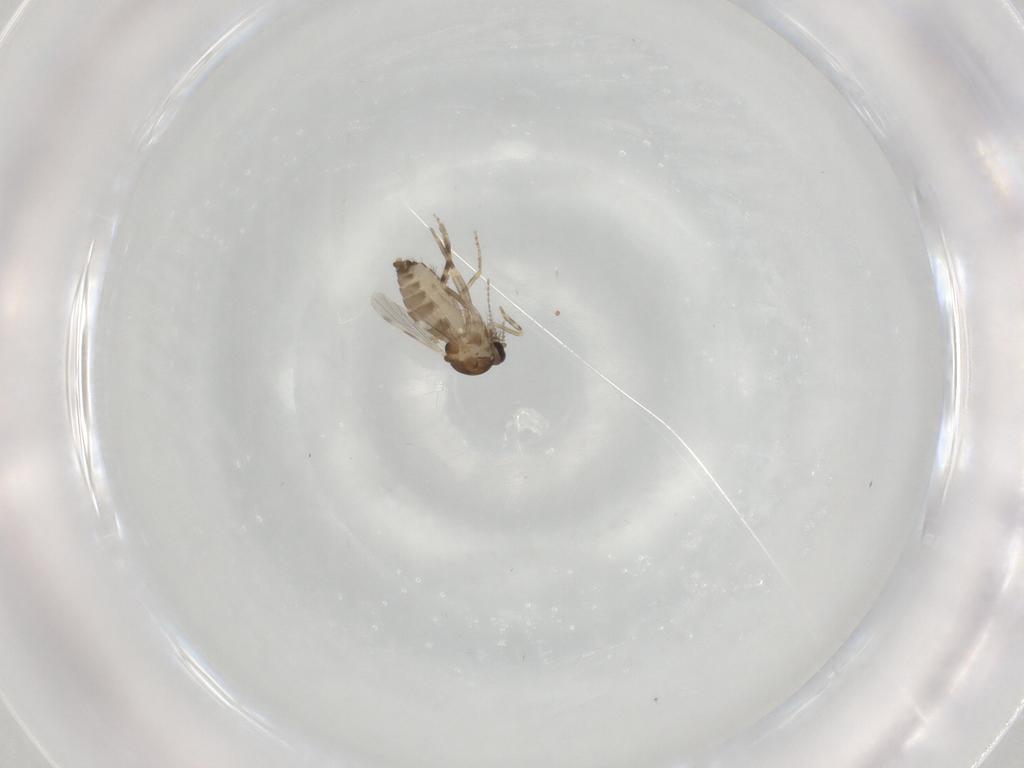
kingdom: Animalia
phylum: Arthropoda
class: Insecta
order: Diptera
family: Ceratopogonidae
